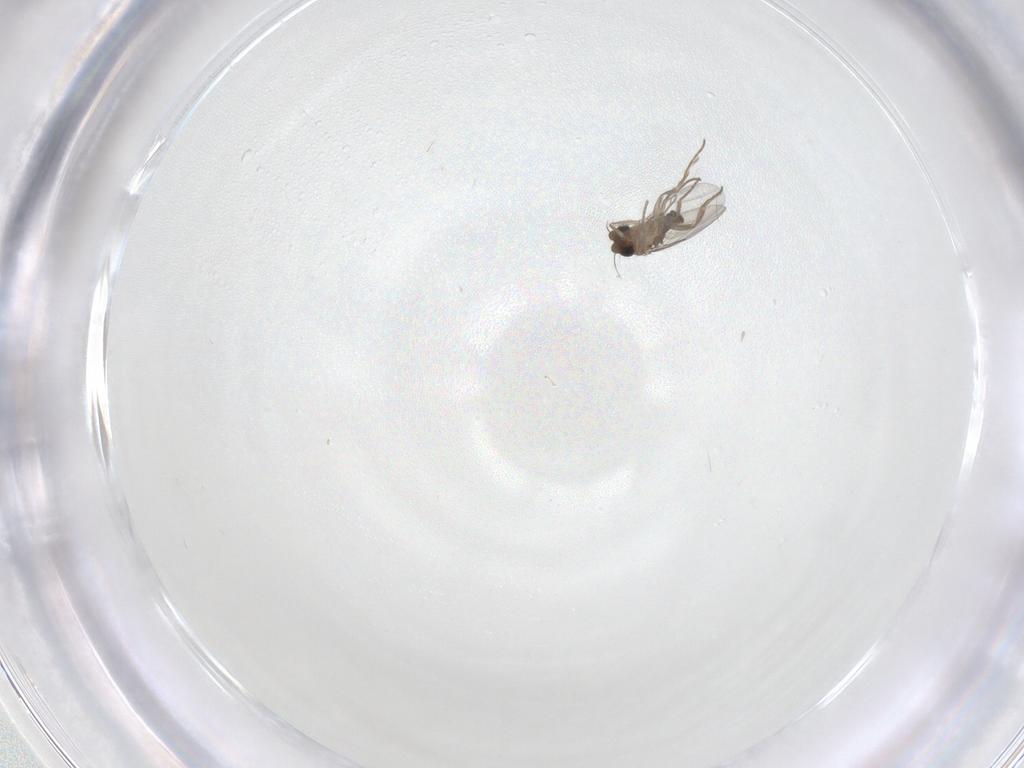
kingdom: Animalia
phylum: Arthropoda
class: Insecta
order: Diptera
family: Phoridae
